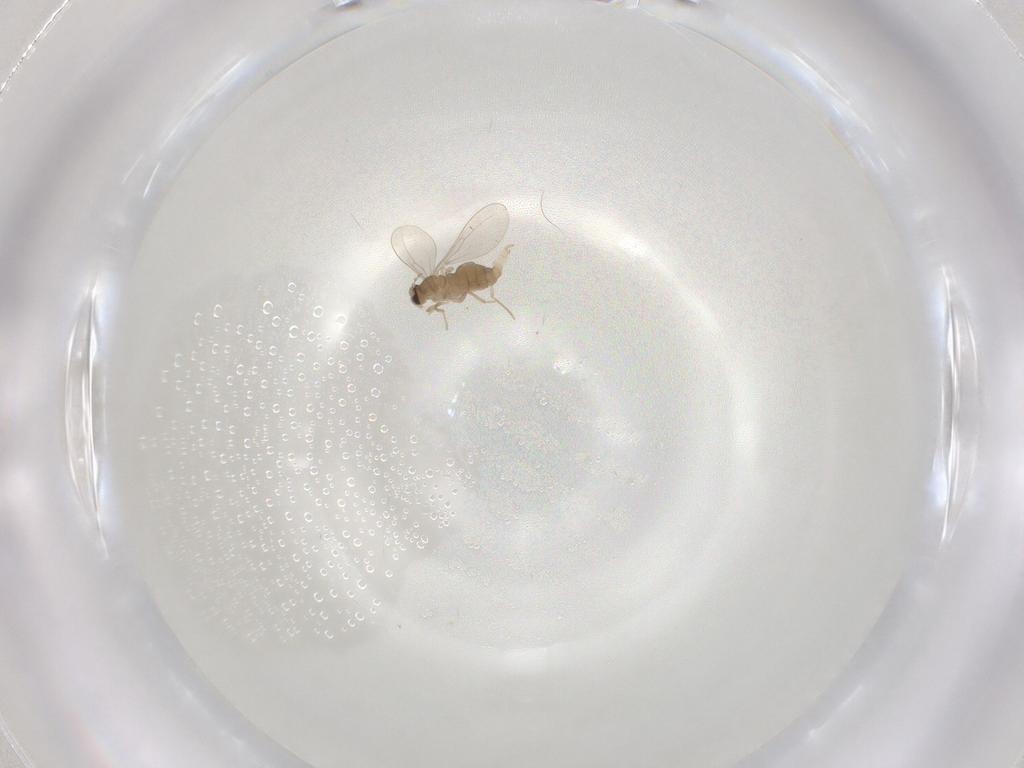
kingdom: Animalia
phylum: Arthropoda
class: Insecta
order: Diptera
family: Cecidomyiidae
